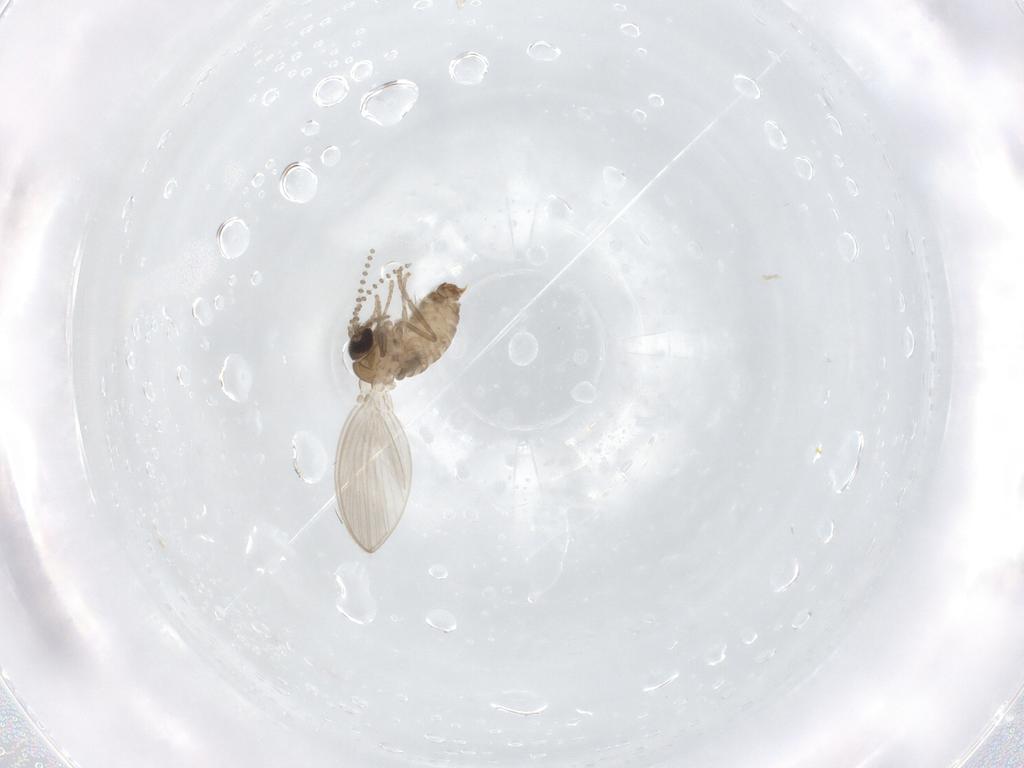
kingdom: Animalia
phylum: Arthropoda
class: Insecta
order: Diptera
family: Psychodidae
